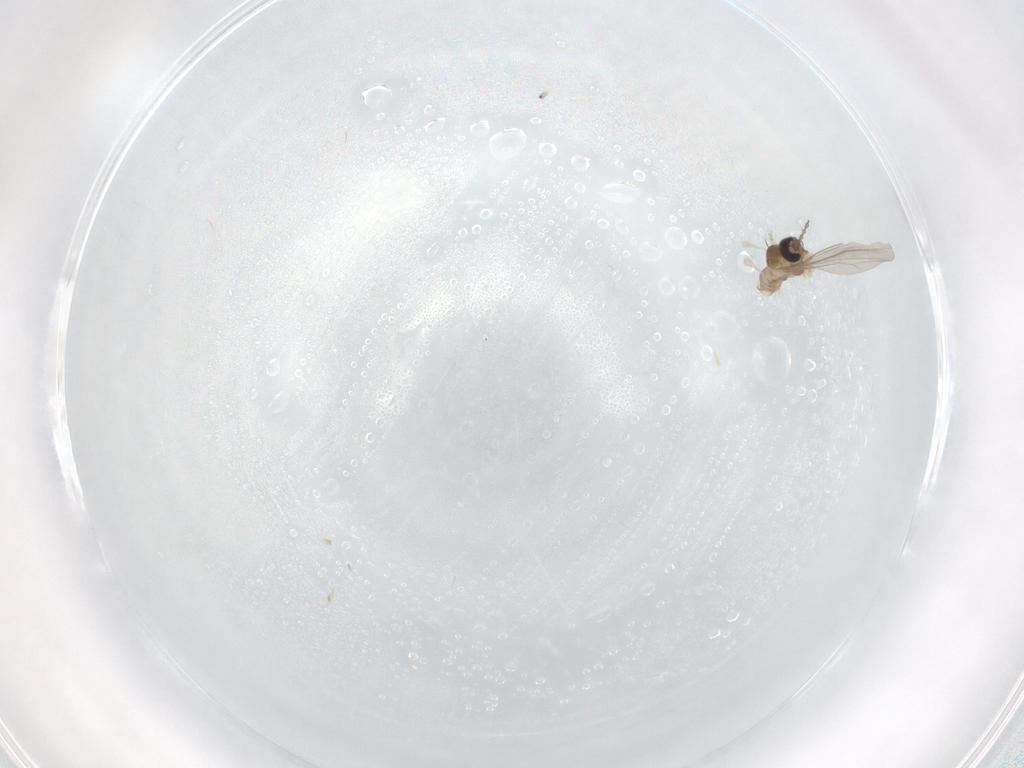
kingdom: Animalia
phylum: Arthropoda
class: Insecta
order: Diptera
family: Cecidomyiidae
